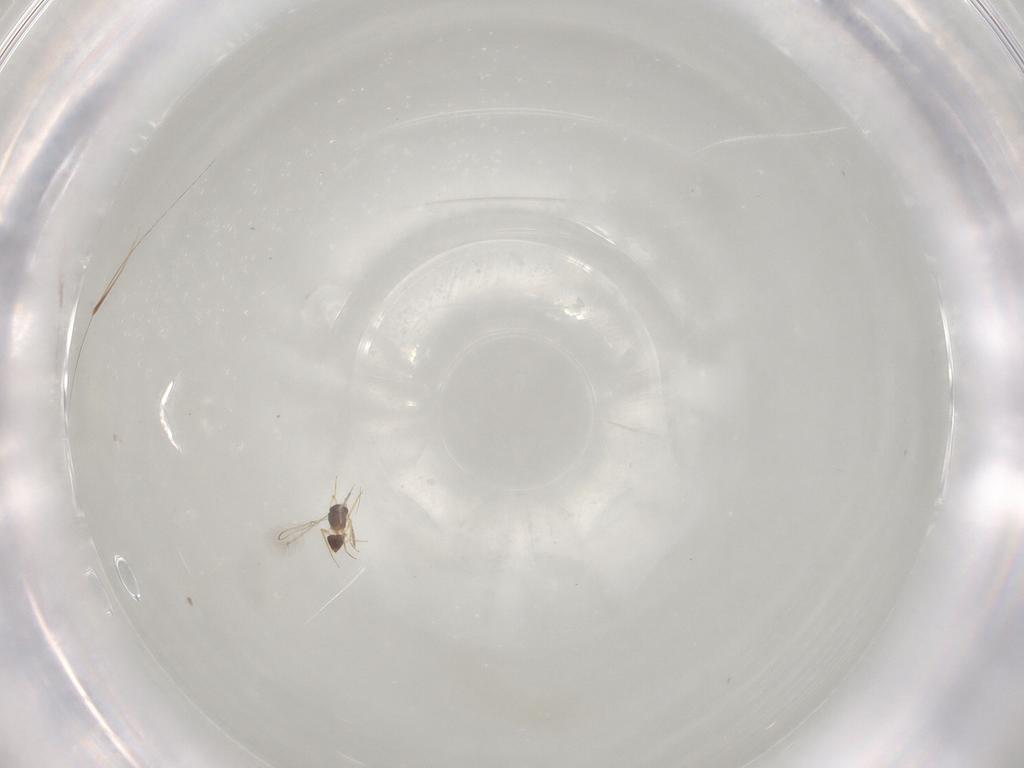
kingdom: Animalia
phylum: Arthropoda
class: Insecta
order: Hymenoptera
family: Mymaridae
